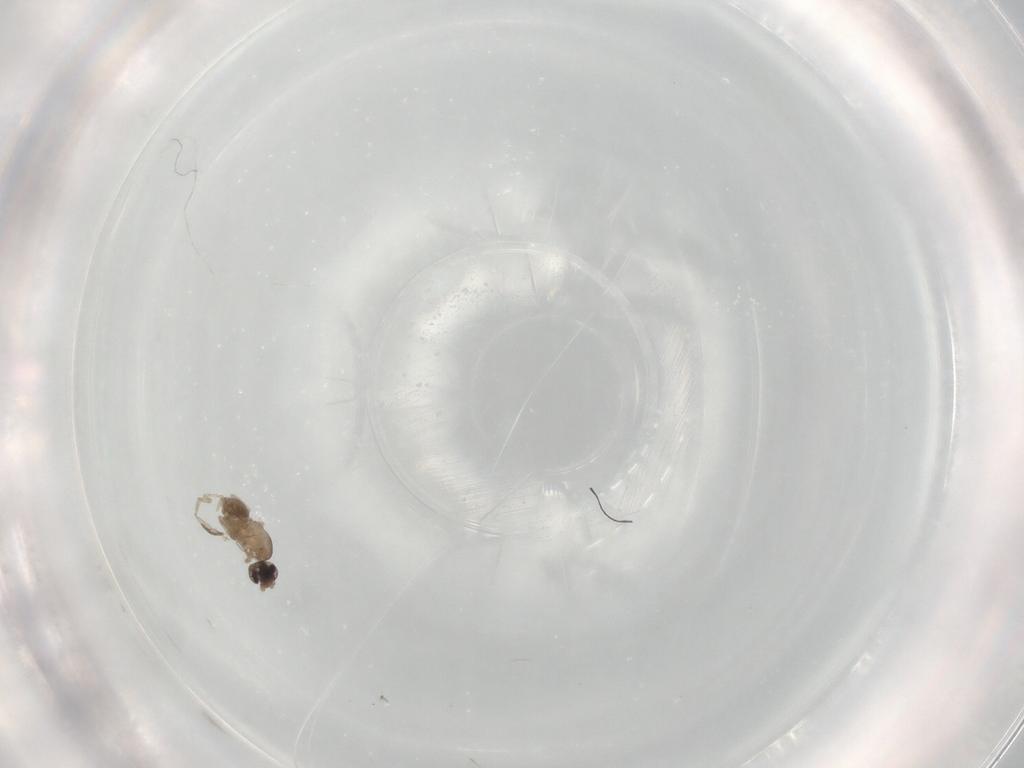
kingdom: Animalia
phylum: Arthropoda
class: Insecta
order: Diptera
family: Cecidomyiidae
